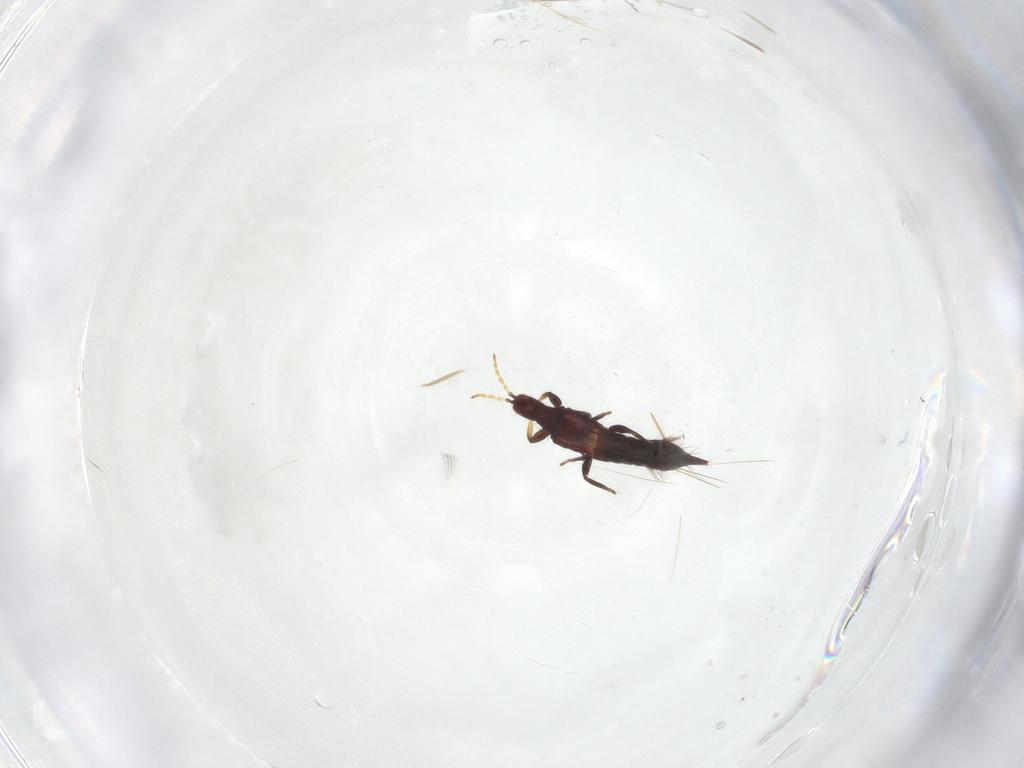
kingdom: Animalia
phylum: Arthropoda
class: Insecta
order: Thysanoptera
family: Phlaeothripidae
